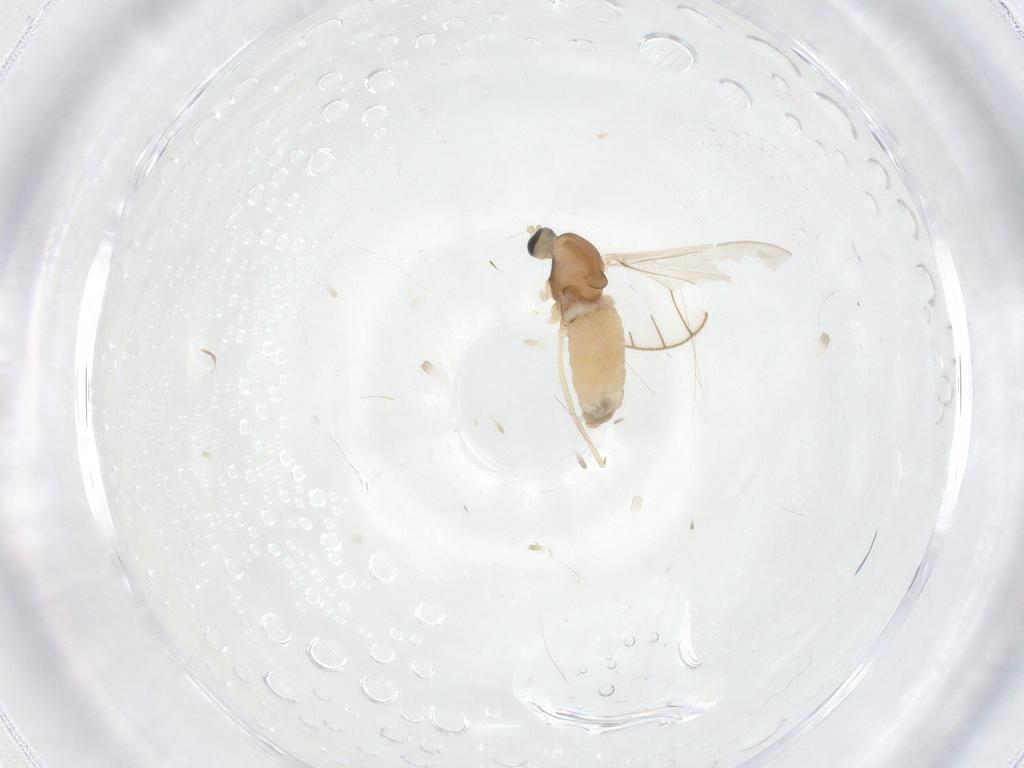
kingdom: Animalia
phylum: Arthropoda
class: Insecta
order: Diptera
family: Cecidomyiidae
